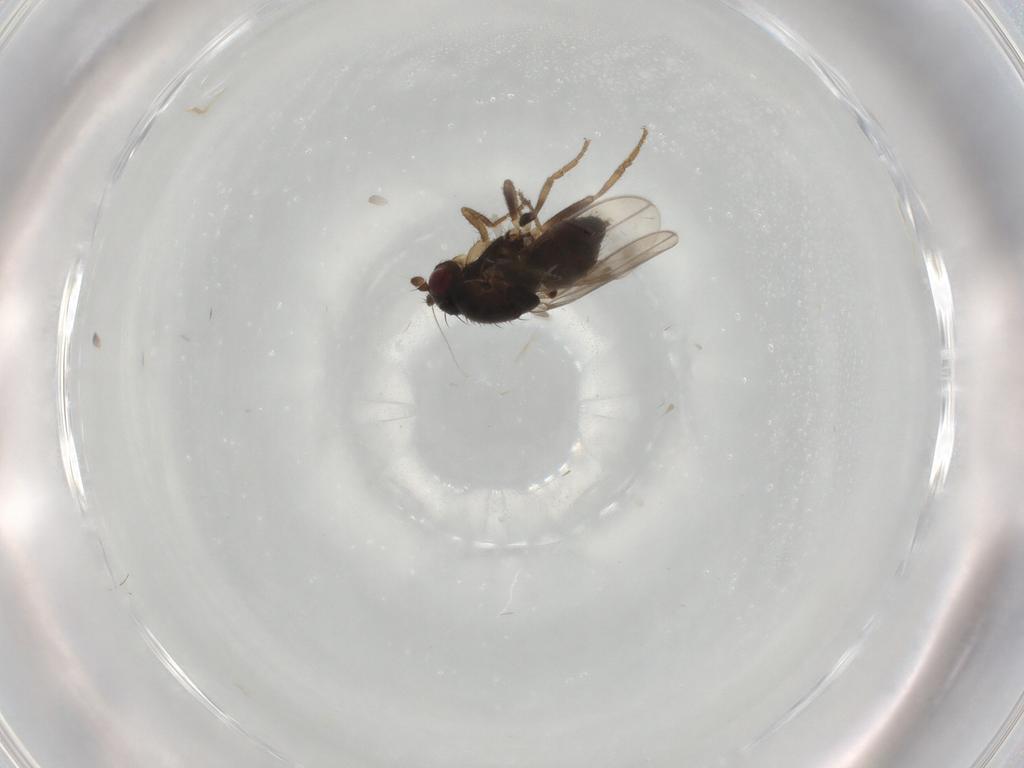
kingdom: Animalia
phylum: Arthropoda
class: Insecta
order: Diptera
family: Sphaeroceridae
